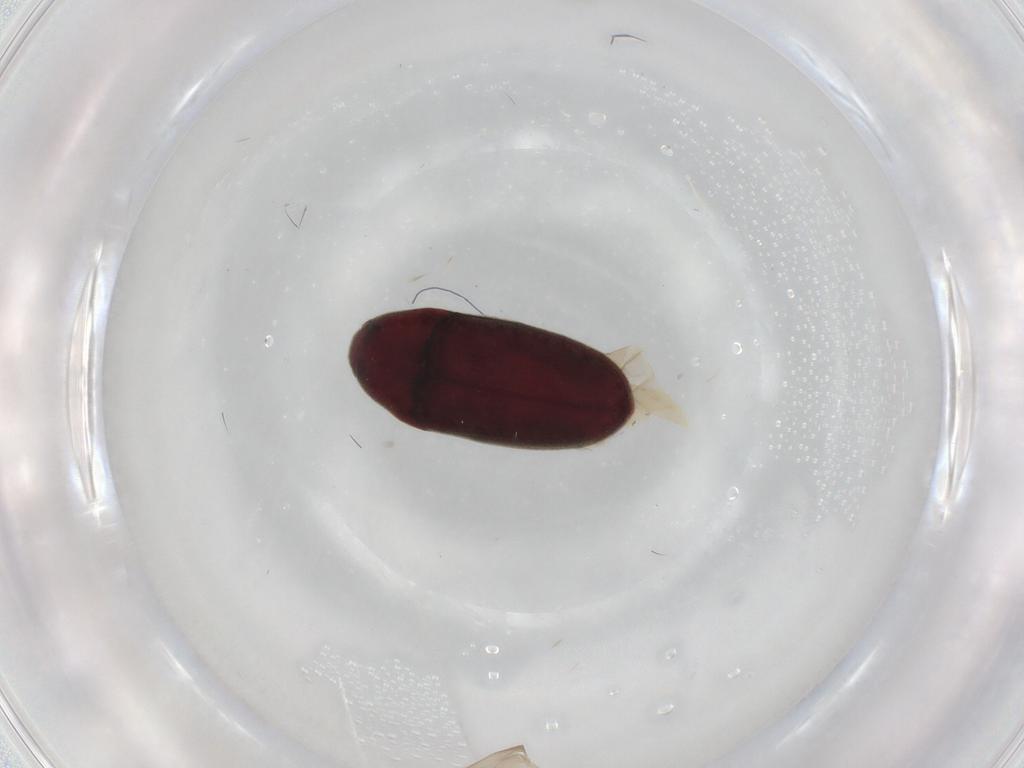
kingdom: Animalia
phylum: Arthropoda
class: Insecta
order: Coleoptera
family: Throscidae
